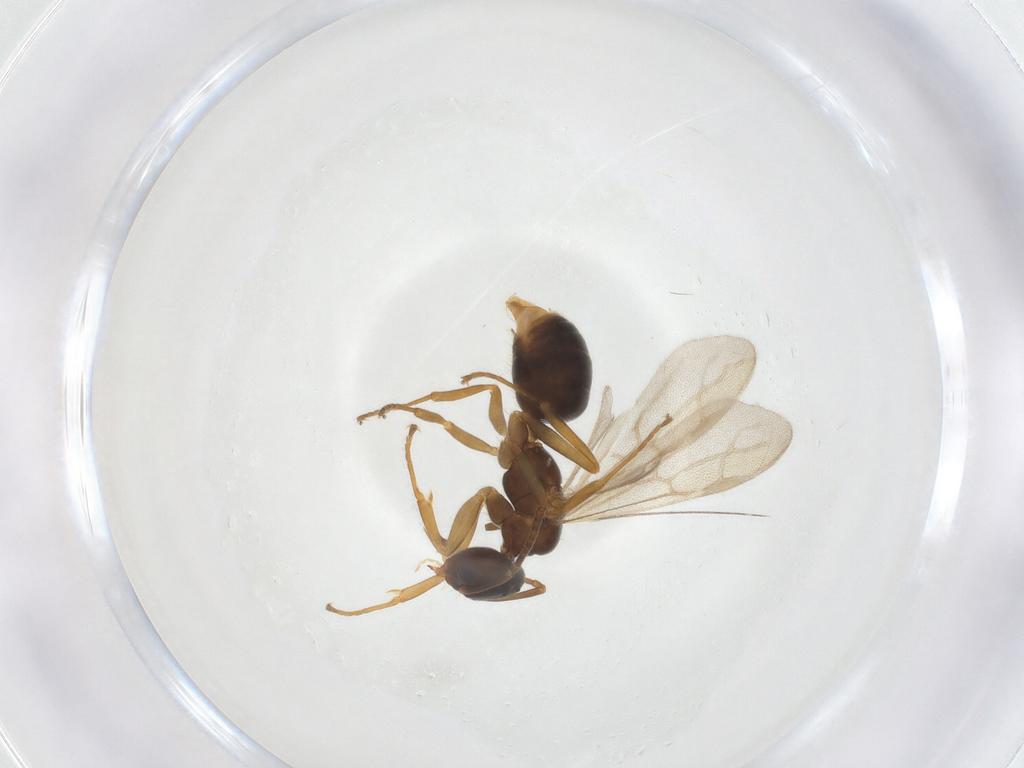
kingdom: Animalia
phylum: Arthropoda
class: Insecta
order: Hymenoptera
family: Formicidae
